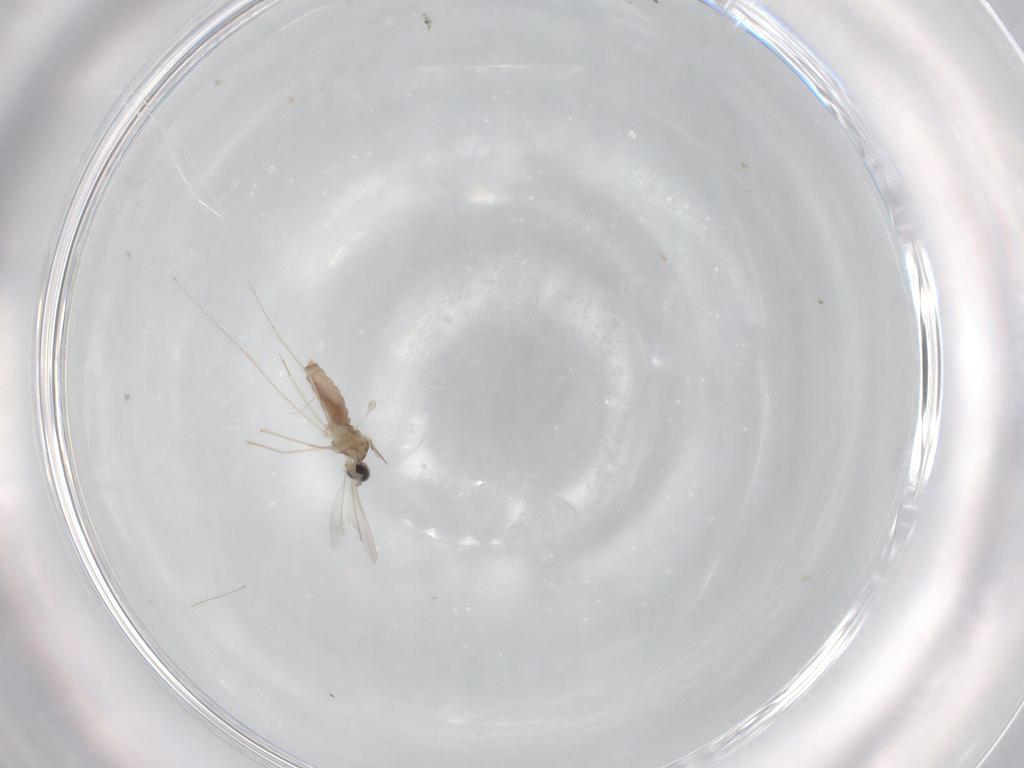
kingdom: Animalia
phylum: Arthropoda
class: Insecta
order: Diptera
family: Cecidomyiidae
